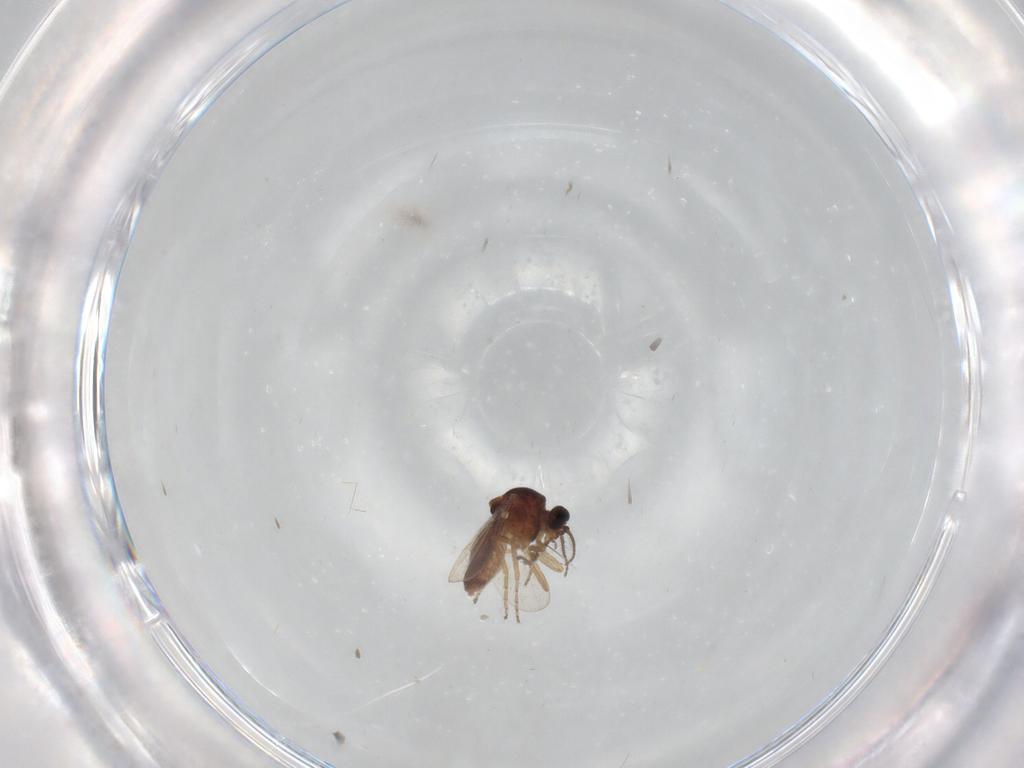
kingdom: Animalia
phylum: Arthropoda
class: Insecta
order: Diptera
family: Ceratopogonidae
